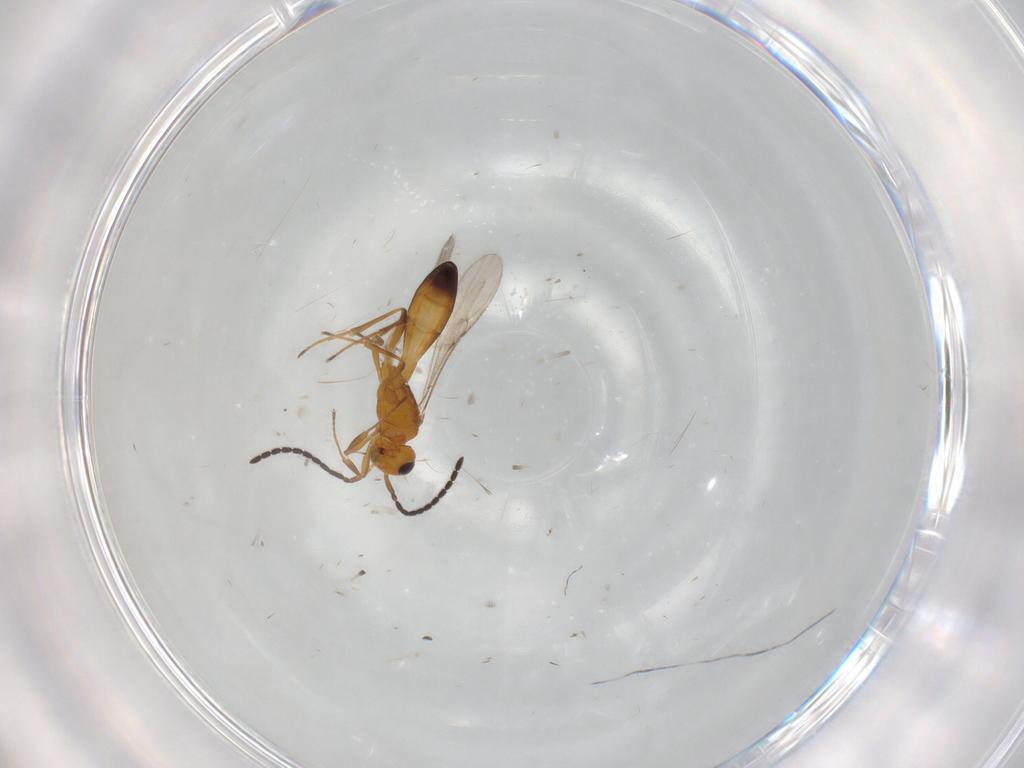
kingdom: Animalia
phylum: Arthropoda
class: Insecta
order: Hymenoptera
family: Scelionidae
